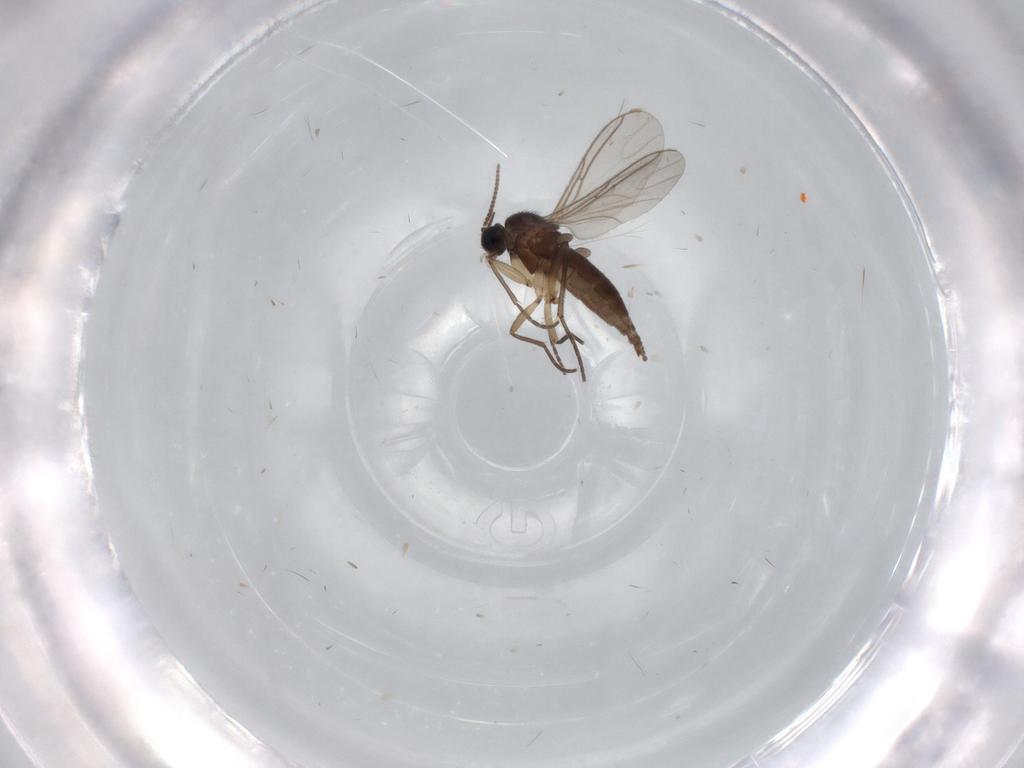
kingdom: Animalia
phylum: Arthropoda
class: Insecta
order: Diptera
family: Sciaridae
